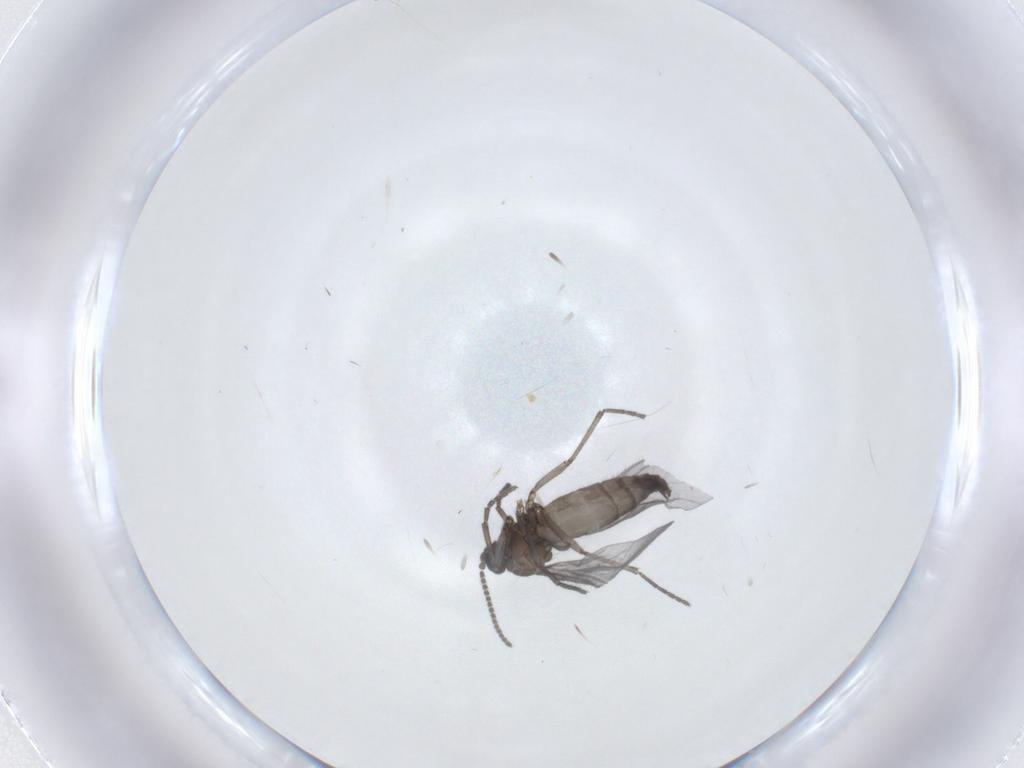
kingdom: Animalia
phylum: Arthropoda
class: Insecta
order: Diptera
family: Sciaridae
